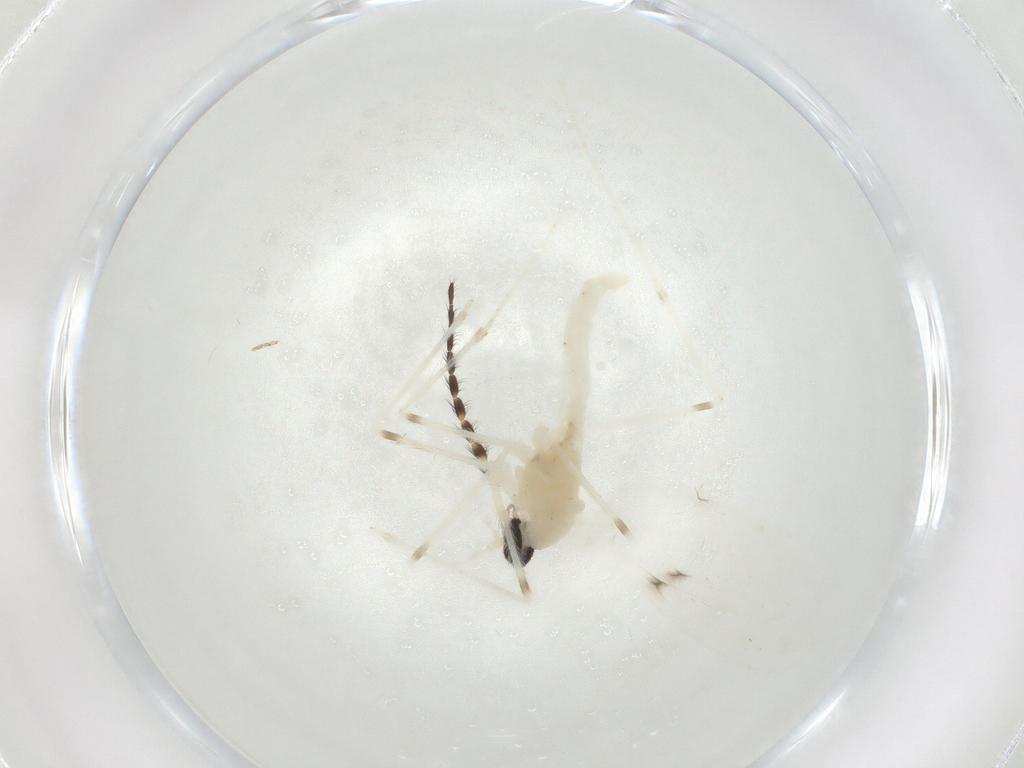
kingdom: Animalia
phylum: Arthropoda
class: Insecta
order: Diptera
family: Cecidomyiidae
